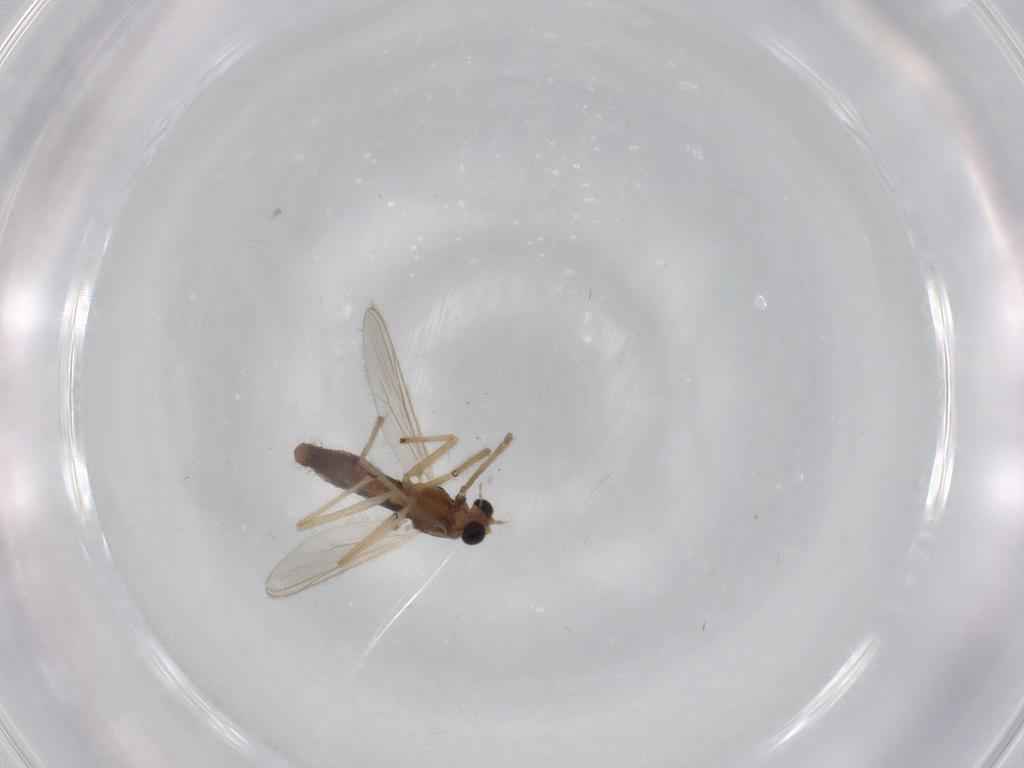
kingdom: Animalia
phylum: Arthropoda
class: Insecta
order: Diptera
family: Chironomidae
